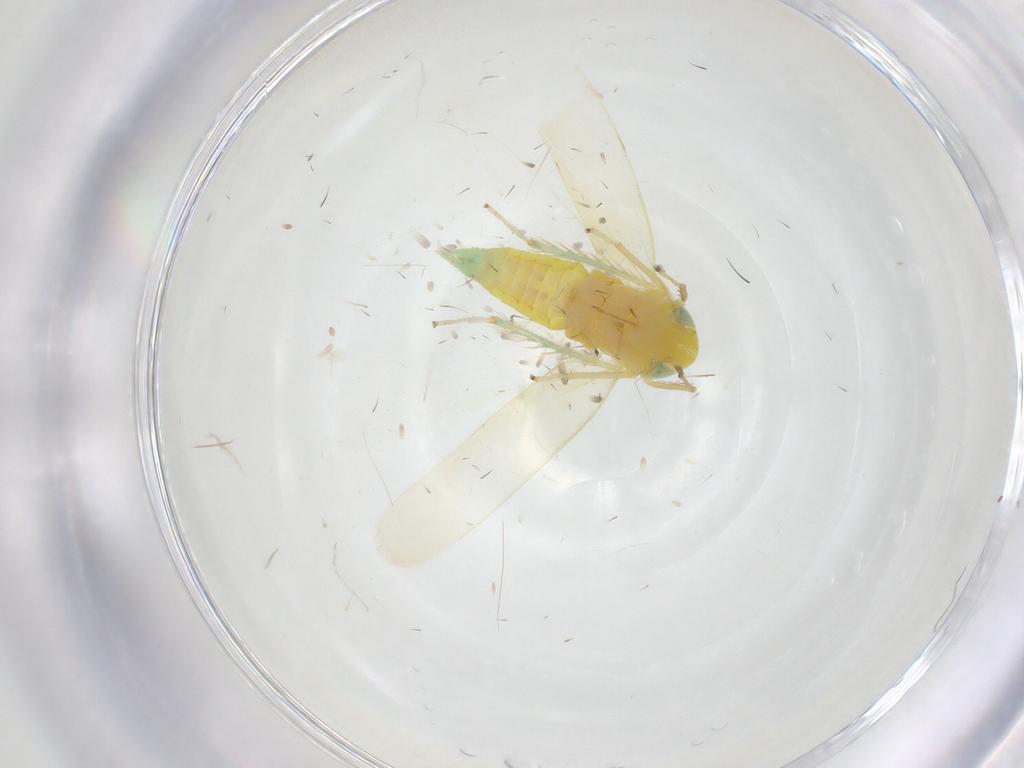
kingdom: Animalia
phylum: Arthropoda
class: Insecta
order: Hemiptera
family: Cicadellidae
